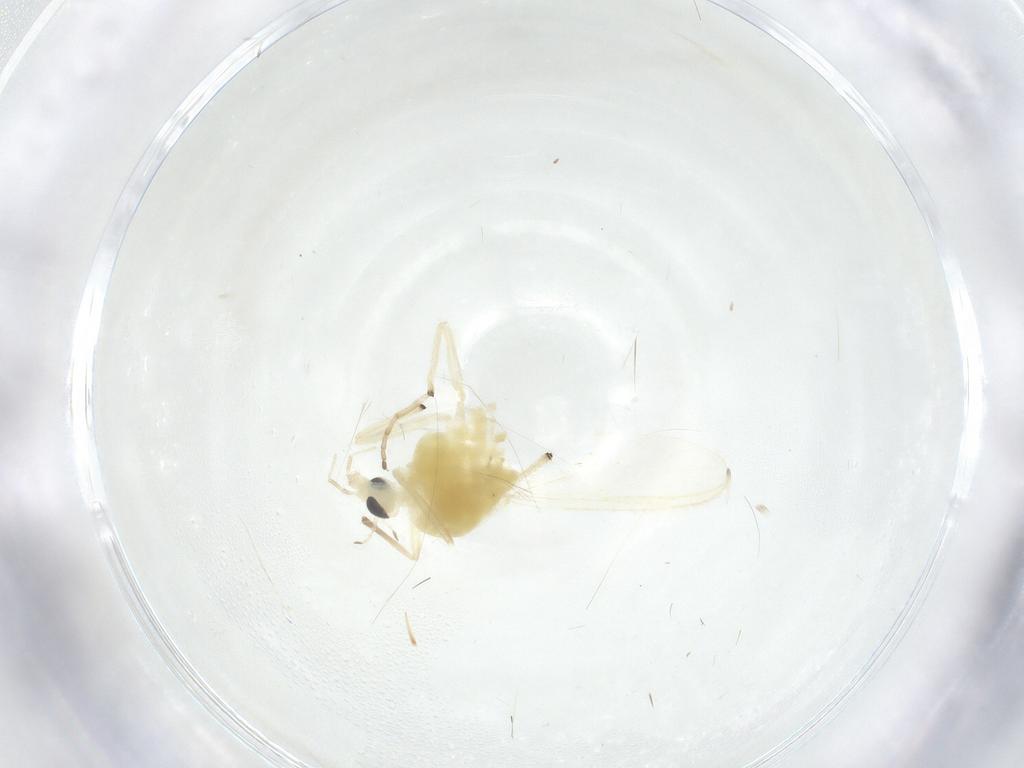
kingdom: Animalia
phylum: Arthropoda
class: Insecta
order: Diptera
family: Chironomidae
